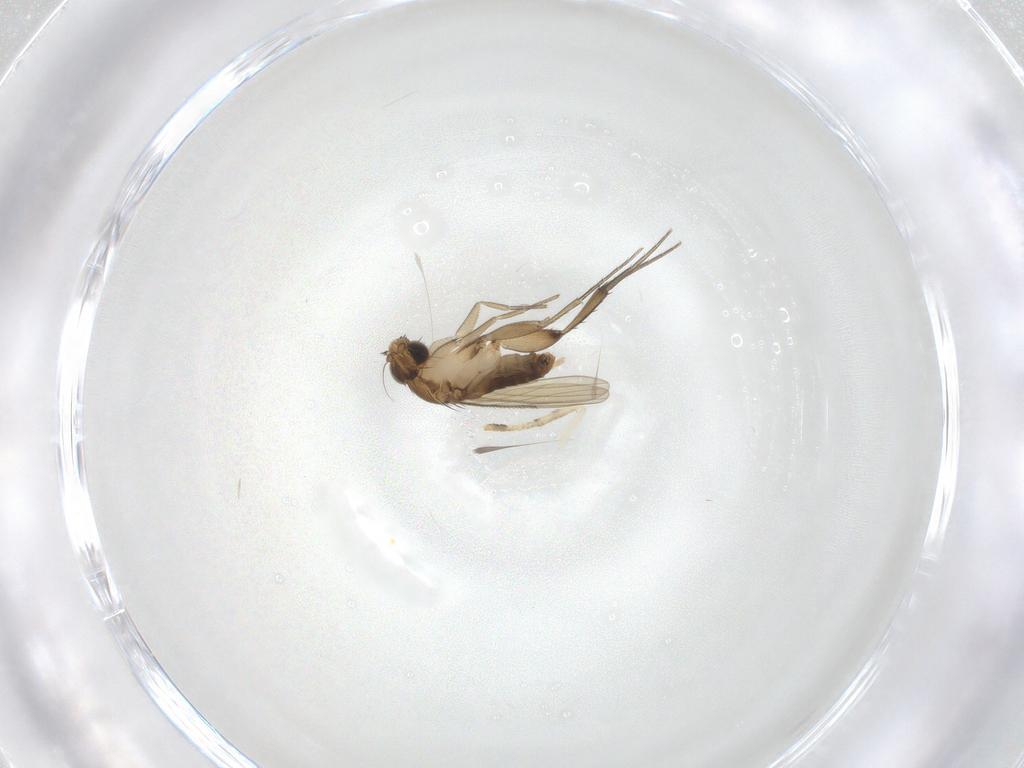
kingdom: Animalia
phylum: Arthropoda
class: Insecta
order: Diptera
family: Phoridae
